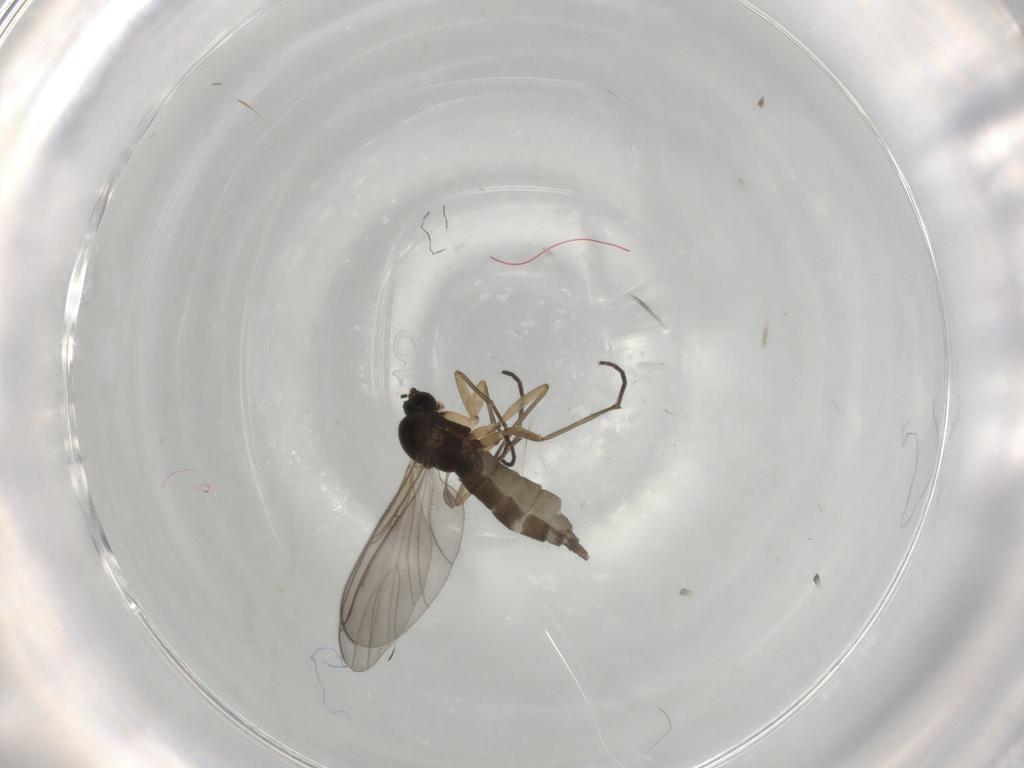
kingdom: Animalia
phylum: Arthropoda
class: Insecta
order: Diptera
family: Sciaridae
